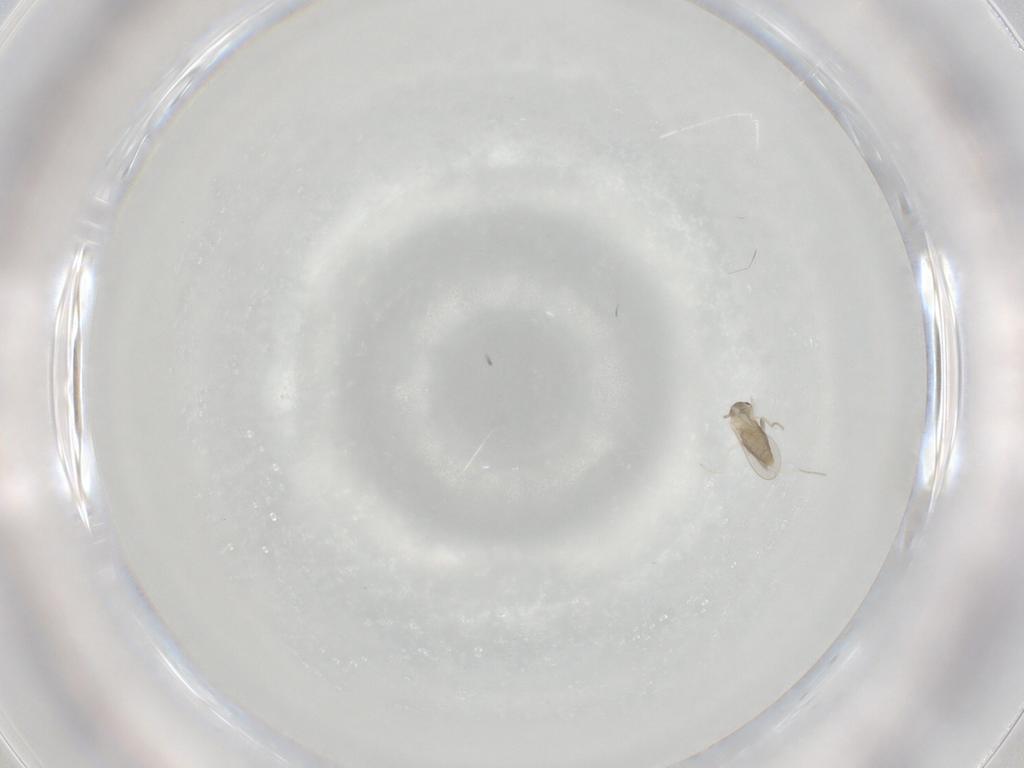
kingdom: Animalia
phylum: Arthropoda
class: Insecta
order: Diptera
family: Cecidomyiidae
